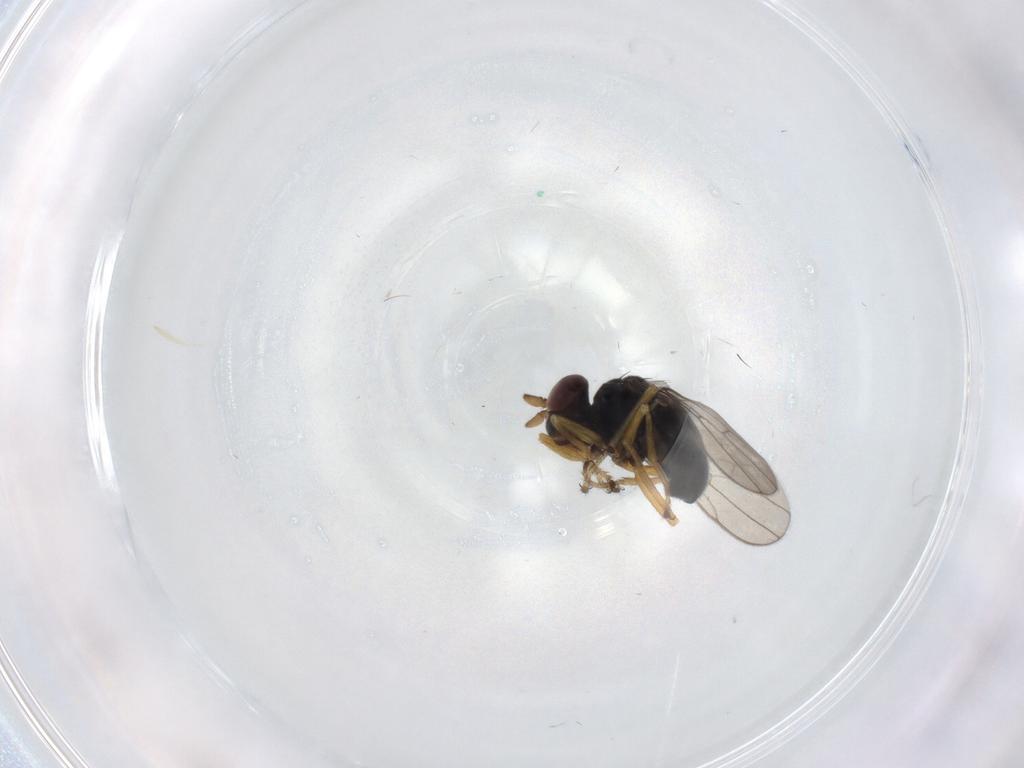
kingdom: Animalia
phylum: Arthropoda
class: Insecta
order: Diptera
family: Ephydridae
